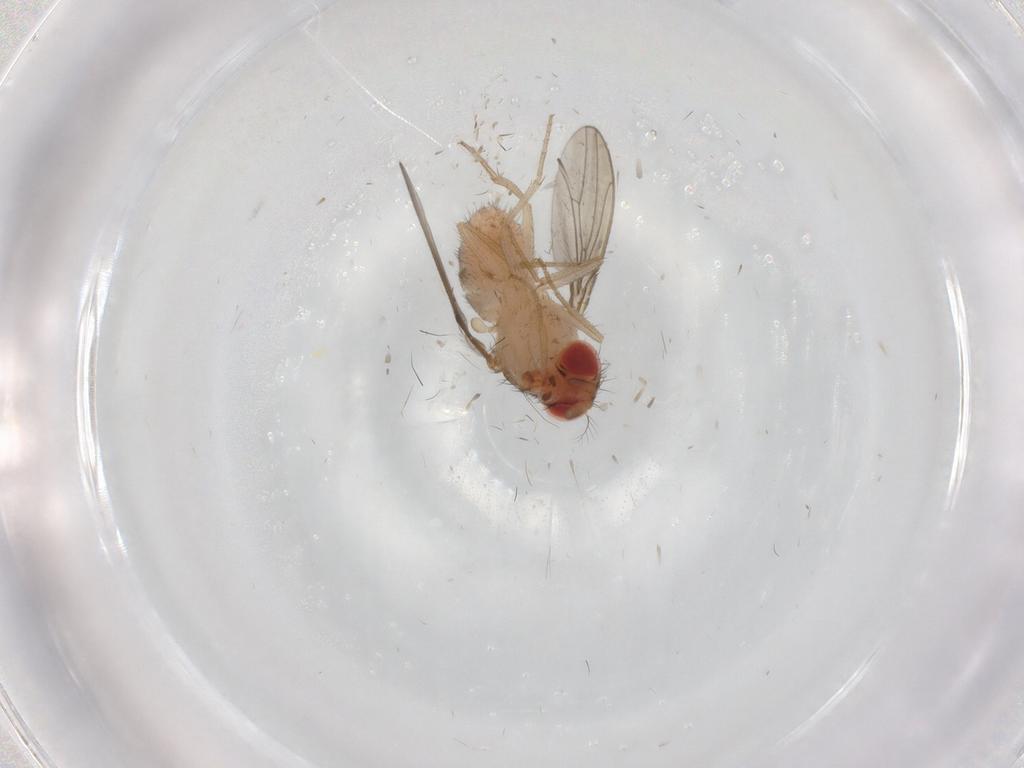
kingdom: Animalia
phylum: Arthropoda
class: Insecta
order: Diptera
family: Drosophilidae
